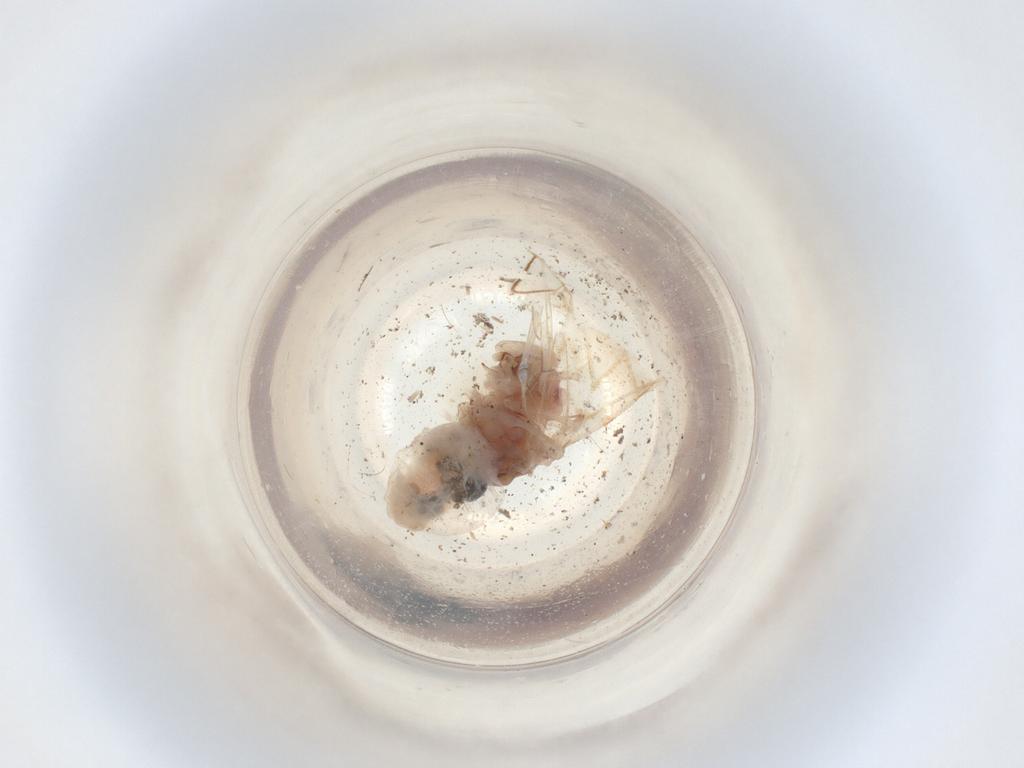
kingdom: Animalia
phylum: Arthropoda
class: Insecta
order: Psocodea
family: Amphipsocidae
